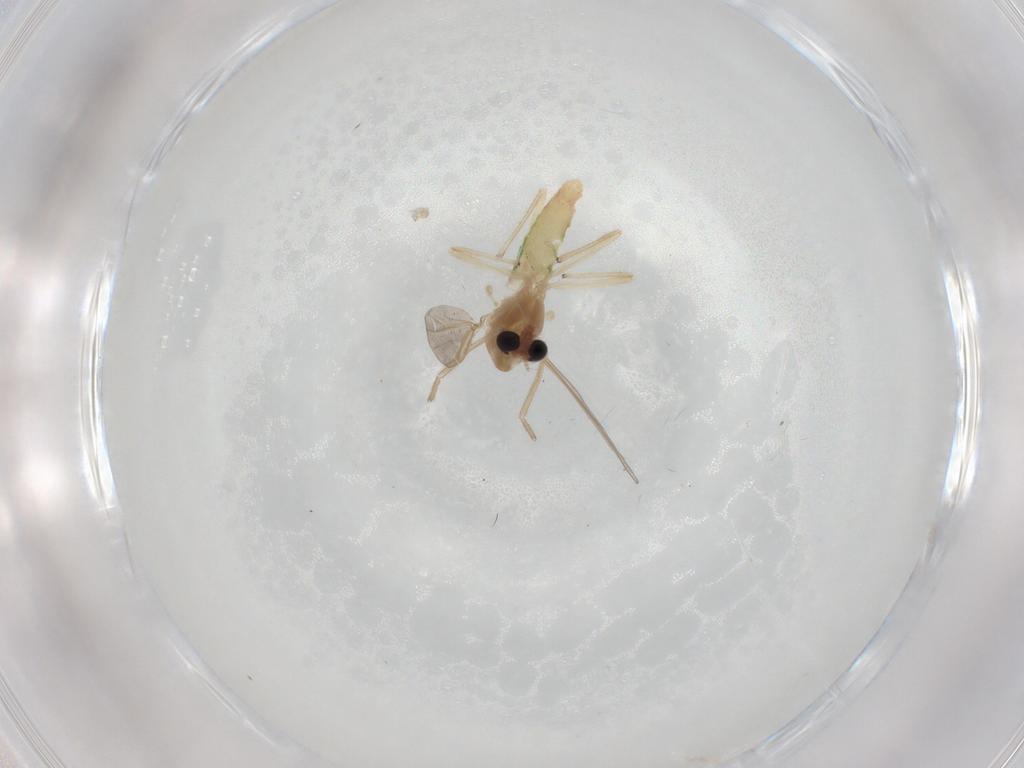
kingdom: Animalia
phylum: Arthropoda
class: Insecta
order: Diptera
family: Chironomidae
